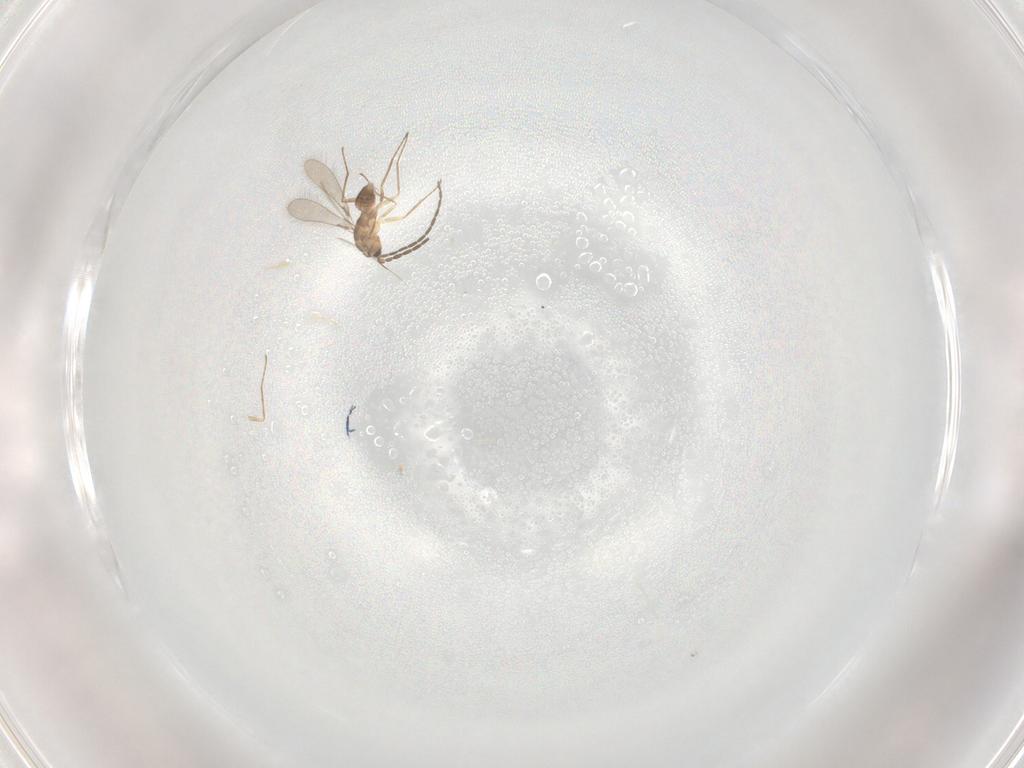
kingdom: Animalia
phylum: Arthropoda
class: Insecta
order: Hymenoptera
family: Mymaridae
